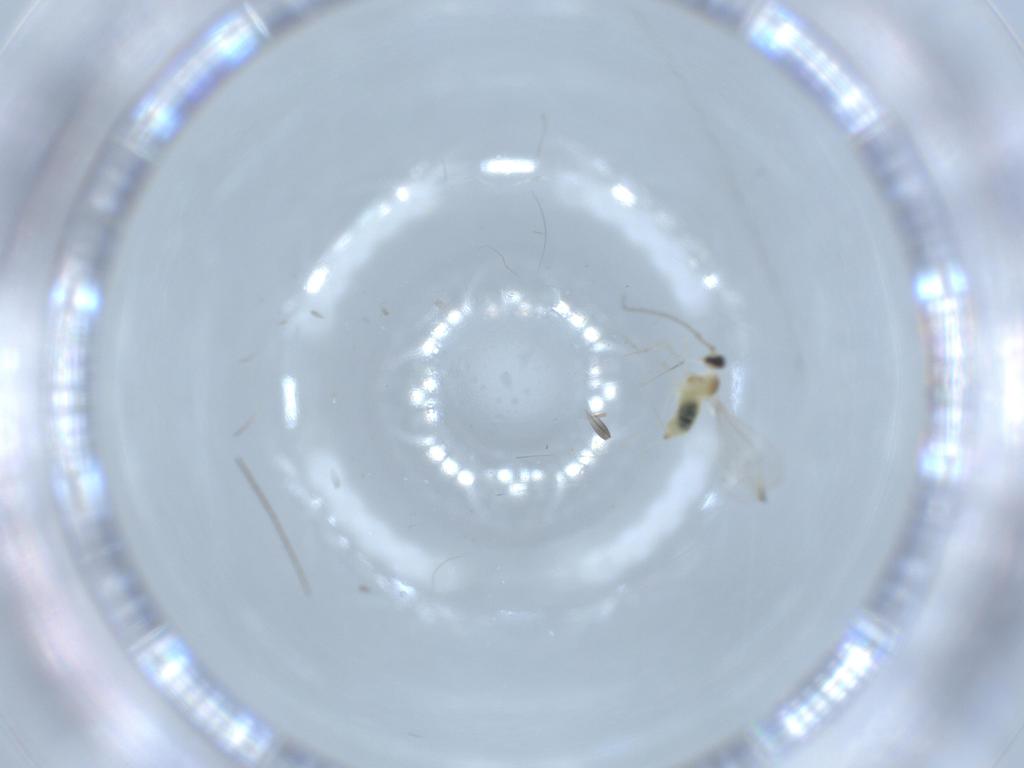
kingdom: Animalia
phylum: Arthropoda
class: Insecta
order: Diptera
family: Cecidomyiidae
